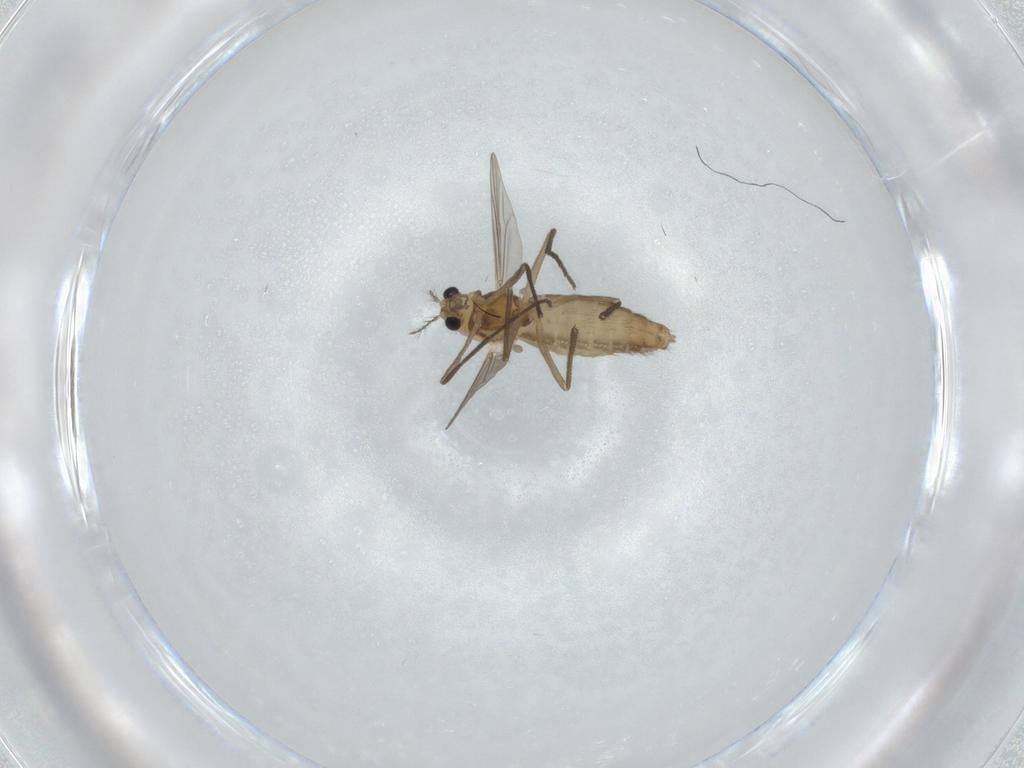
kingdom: Animalia
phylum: Arthropoda
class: Insecta
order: Diptera
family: Chironomidae
